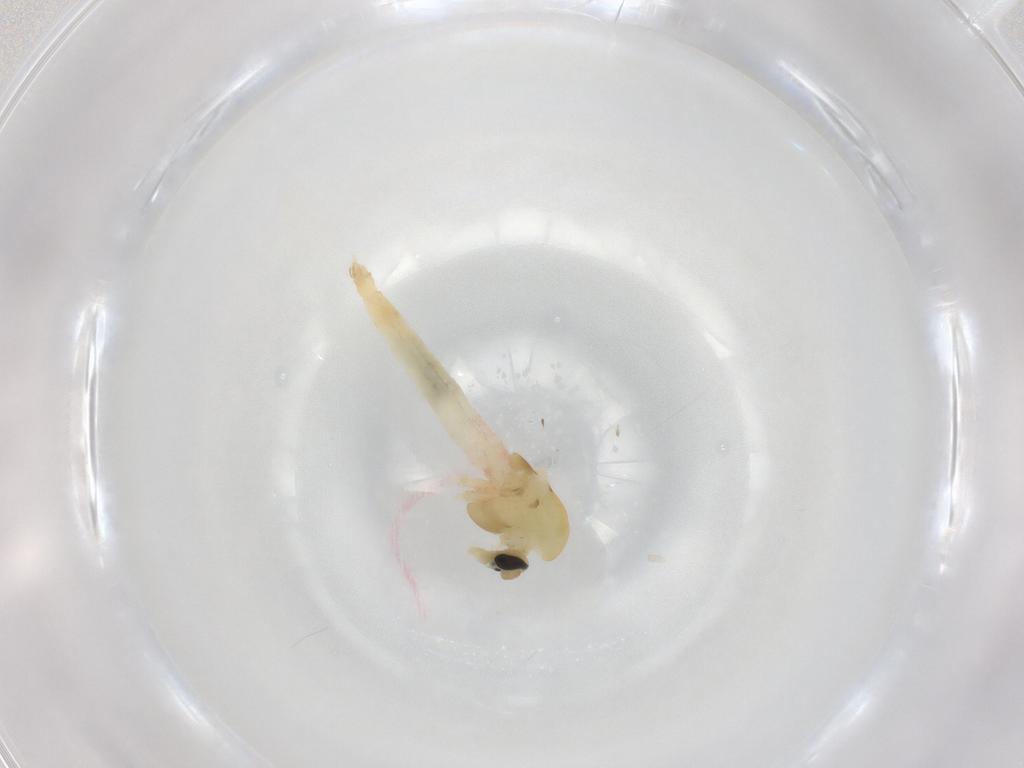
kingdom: Animalia
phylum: Arthropoda
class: Insecta
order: Diptera
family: Chironomidae
